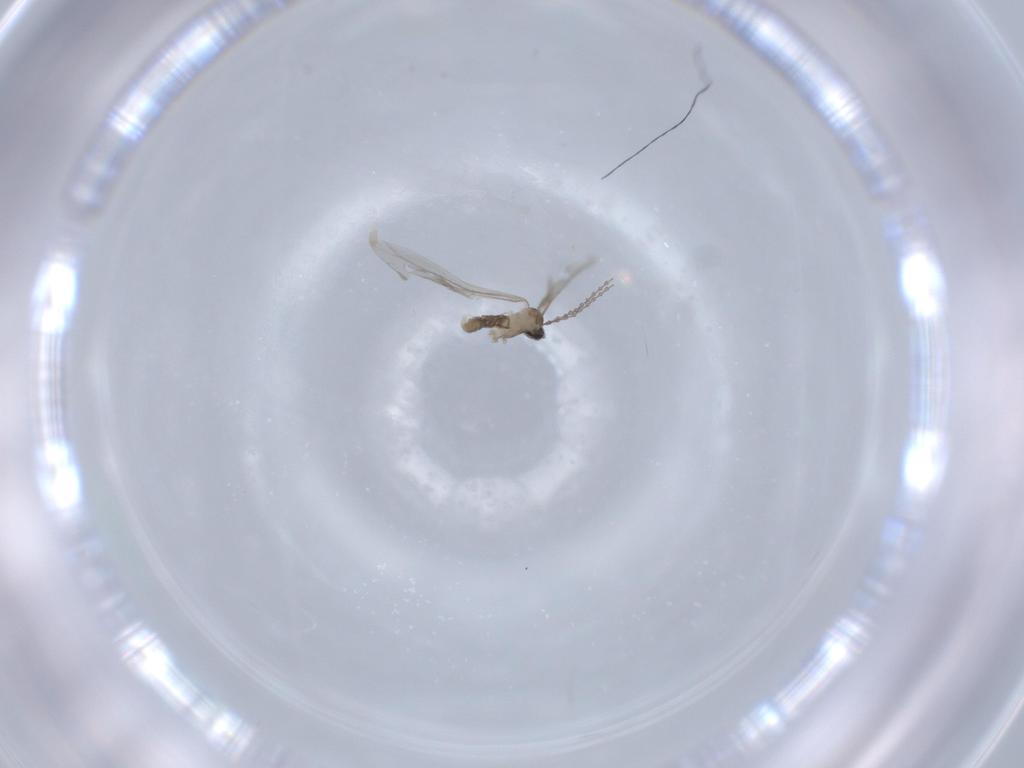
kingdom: Animalia
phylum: Arthropoda
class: Insecta
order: Diptera
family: Cecidomyiidae
